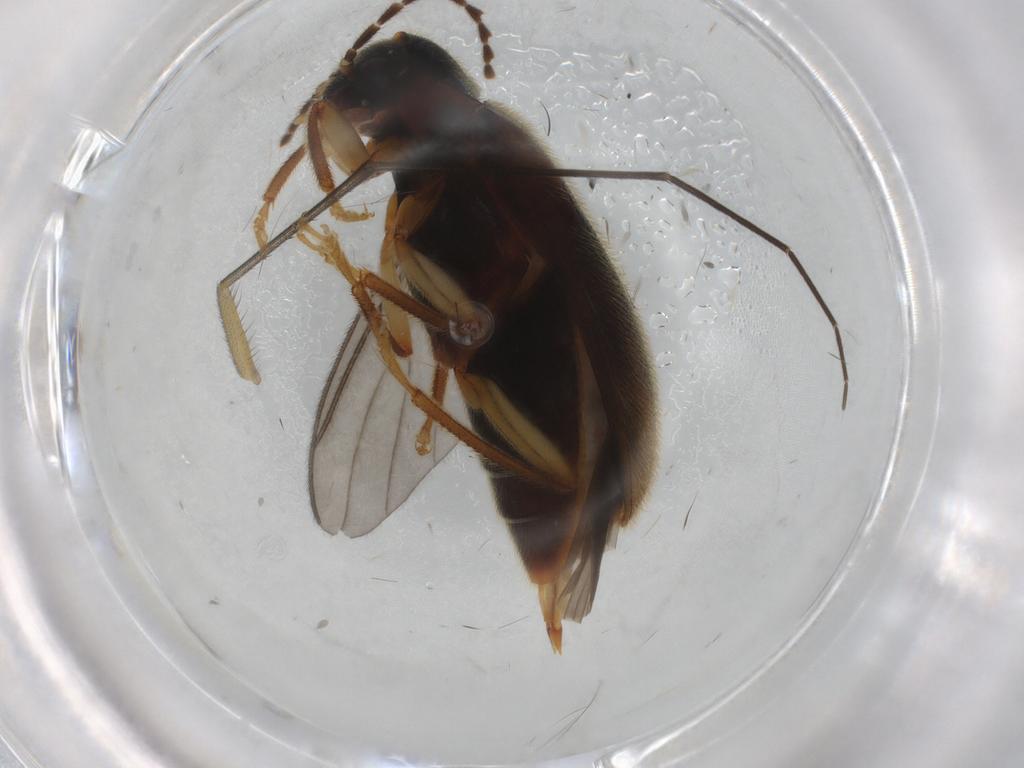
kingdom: Animalia
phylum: Arthropoda
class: Insecta
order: Coleoptera
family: Ptilodactylidae
